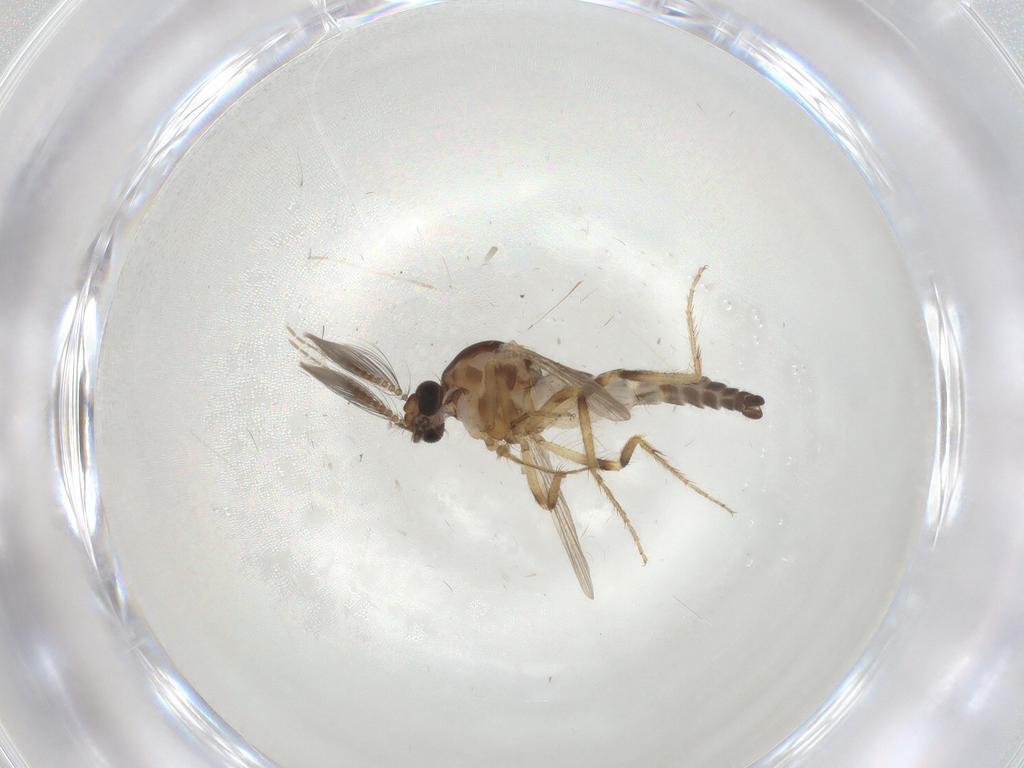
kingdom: Animalia
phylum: Arthropoda
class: Insecta
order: Diptera
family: Ceratopogonidae
